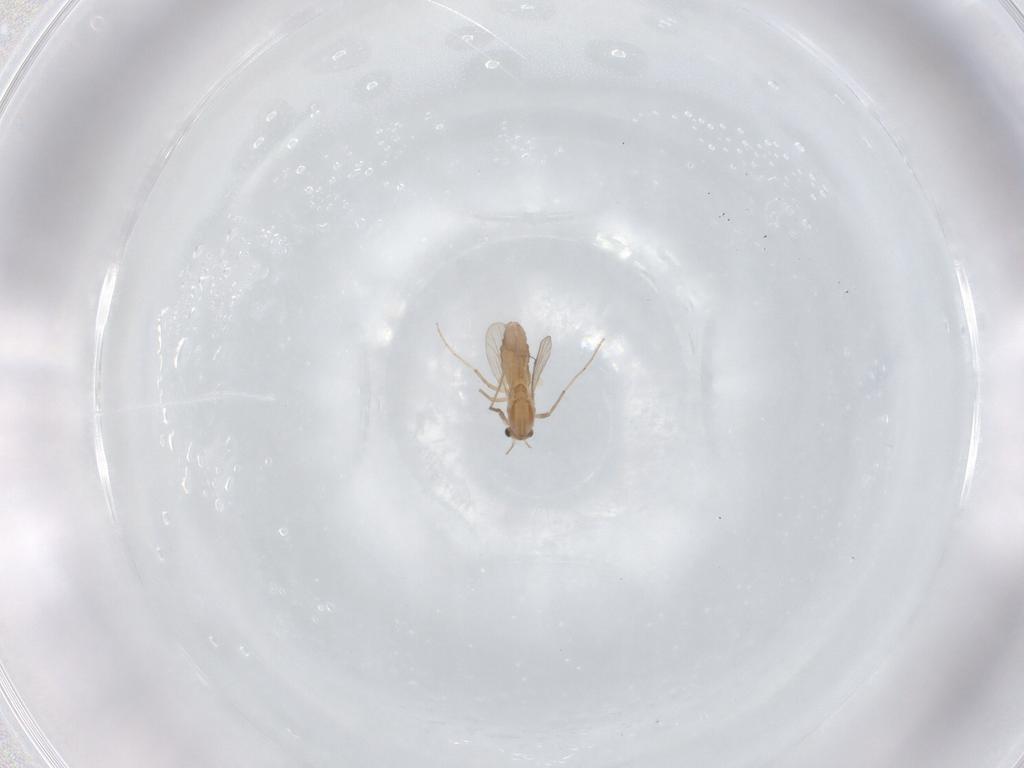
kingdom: Animalia
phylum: Arthropoda
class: Insecta
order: Diptera
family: Chironomidae
